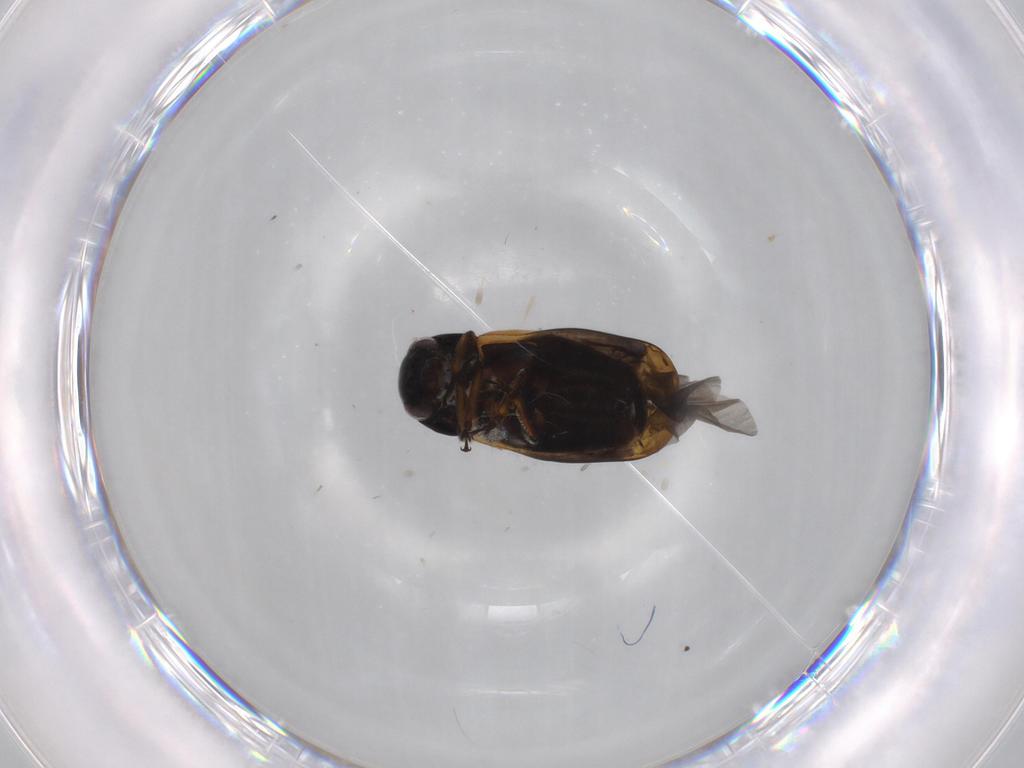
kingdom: Animalia
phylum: Arthropoda
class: Insecta
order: Coleoptera
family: Chrysomelidae
